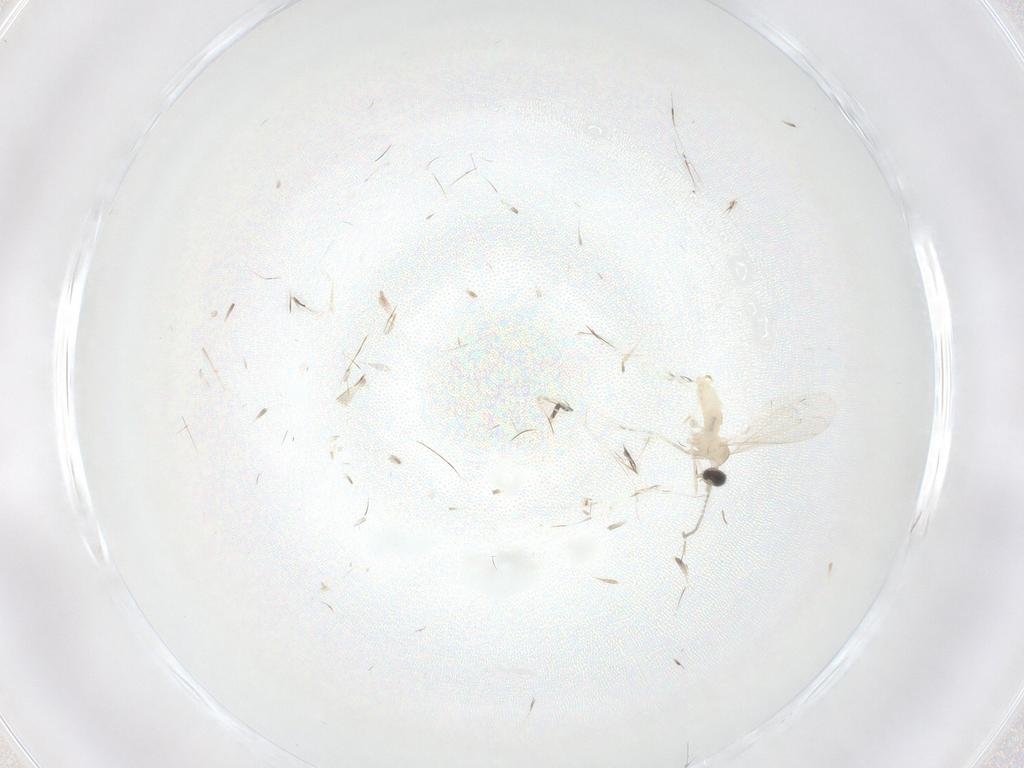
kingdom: Animalia
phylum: Arthropoda
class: Insecta
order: Diptera
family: Cecidomyiidae
